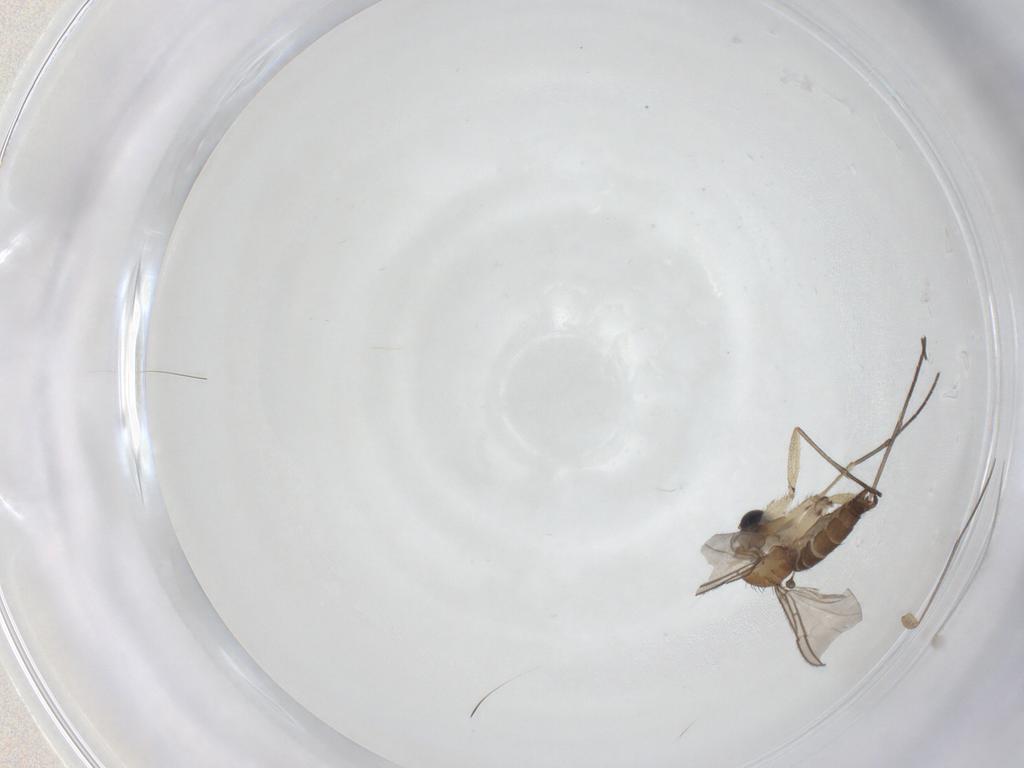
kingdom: Animalia
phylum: Arthropoda
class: Insecta
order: Diptera
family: Sciaridae
